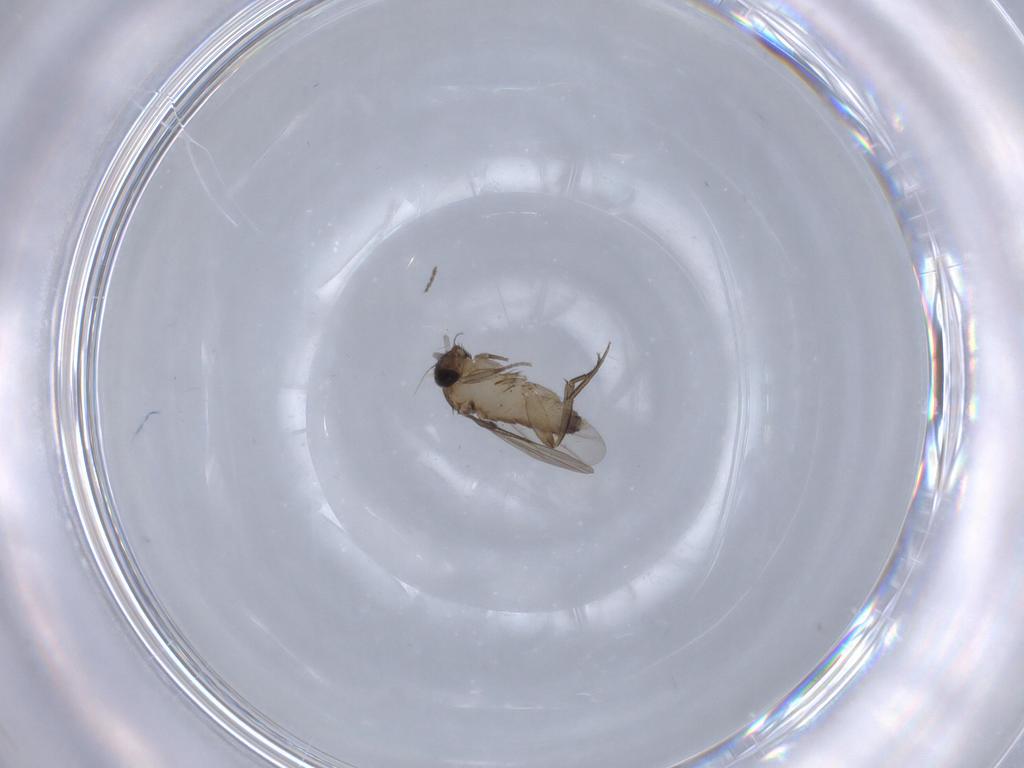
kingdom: Animalia
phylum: Arthropoda
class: Insecta
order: Diptera
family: Phoridae
